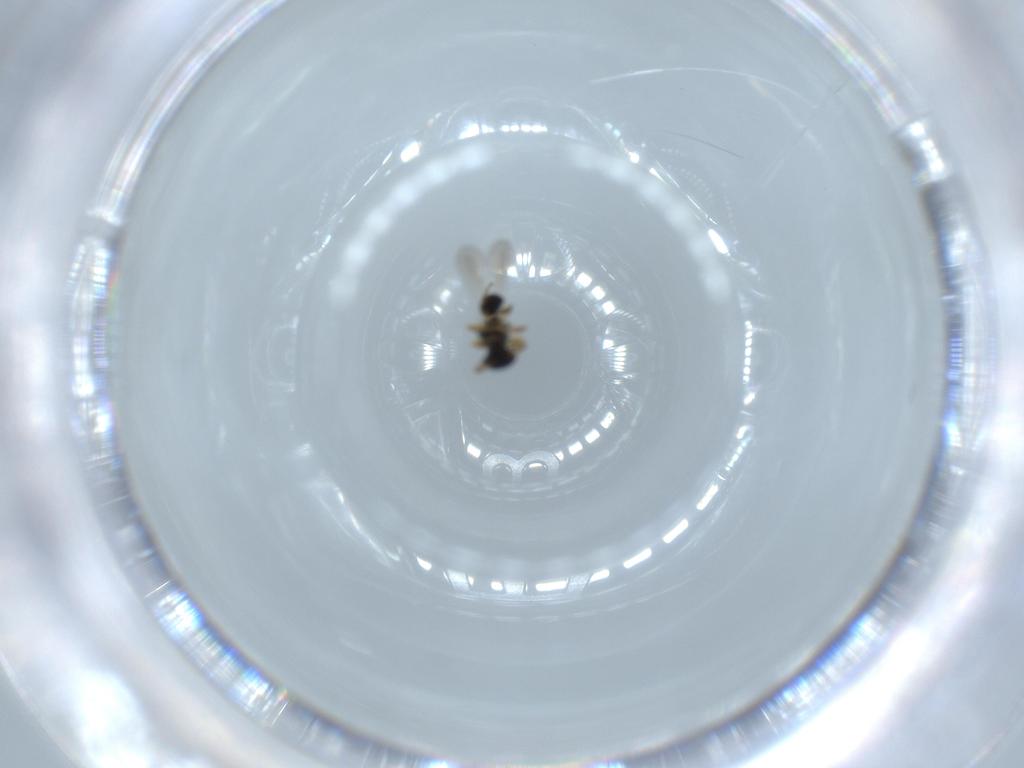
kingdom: Animalia
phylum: Arthropoda
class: Insecta
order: Hymenoptera
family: Platygastridae
